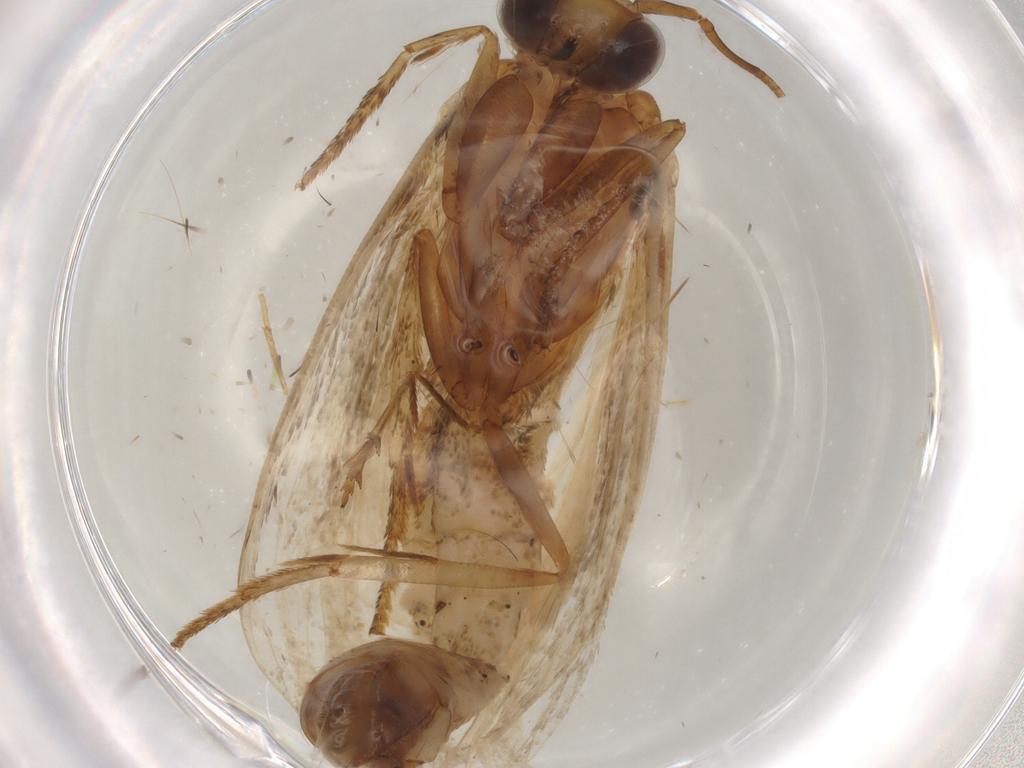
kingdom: Animalia
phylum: Arthropoda
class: Insecta
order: Lepidoptera
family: Pyralidae
